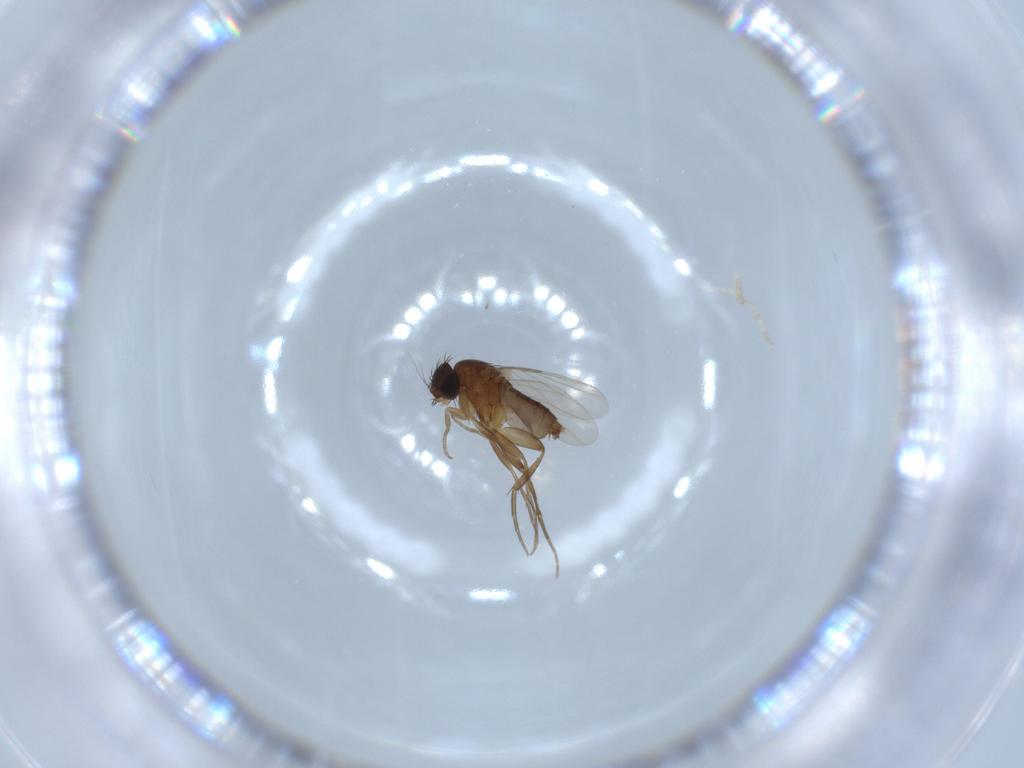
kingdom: Animalia
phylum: Arthropoda
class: Insecta
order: Diptera
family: Phoridae
